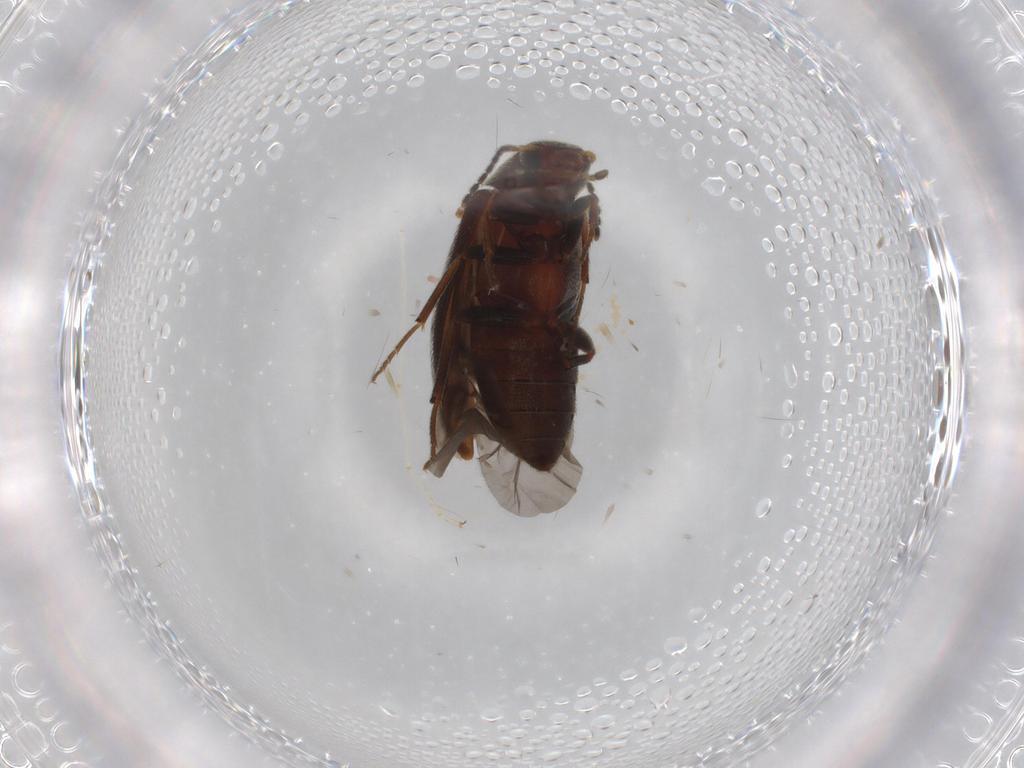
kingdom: Animalia
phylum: Arthropoda
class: Insecta
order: Coleoptera
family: Melandryidae
